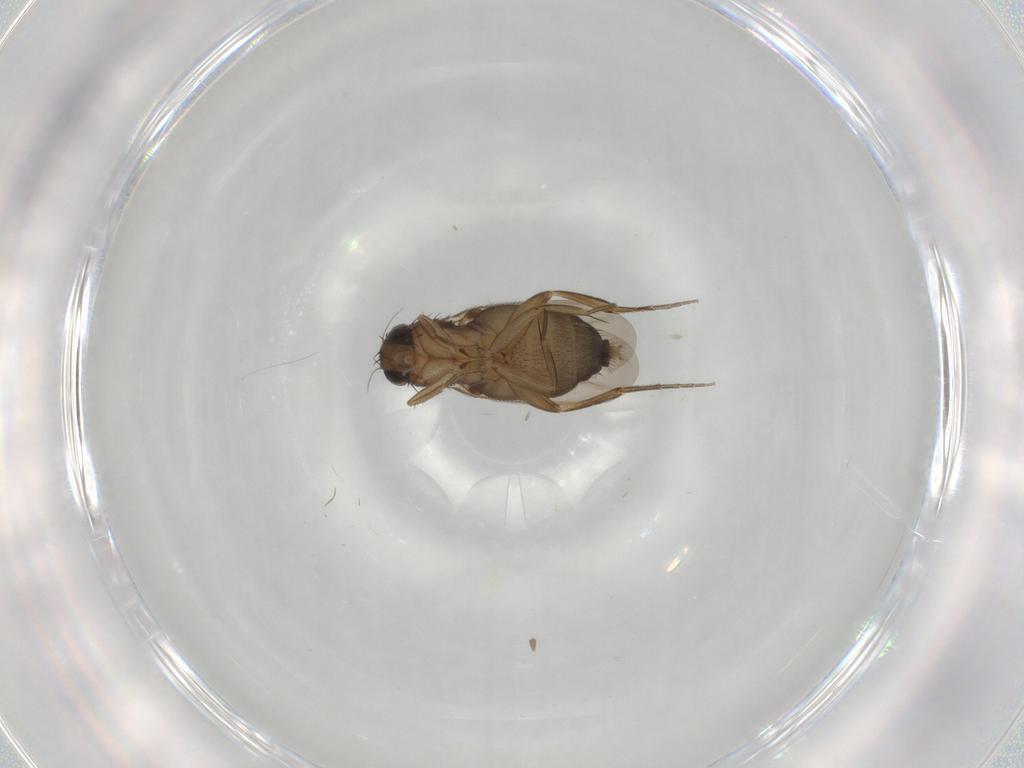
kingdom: Animalia
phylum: Arthropoda
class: Insecta
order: Diptera
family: Phoridae
